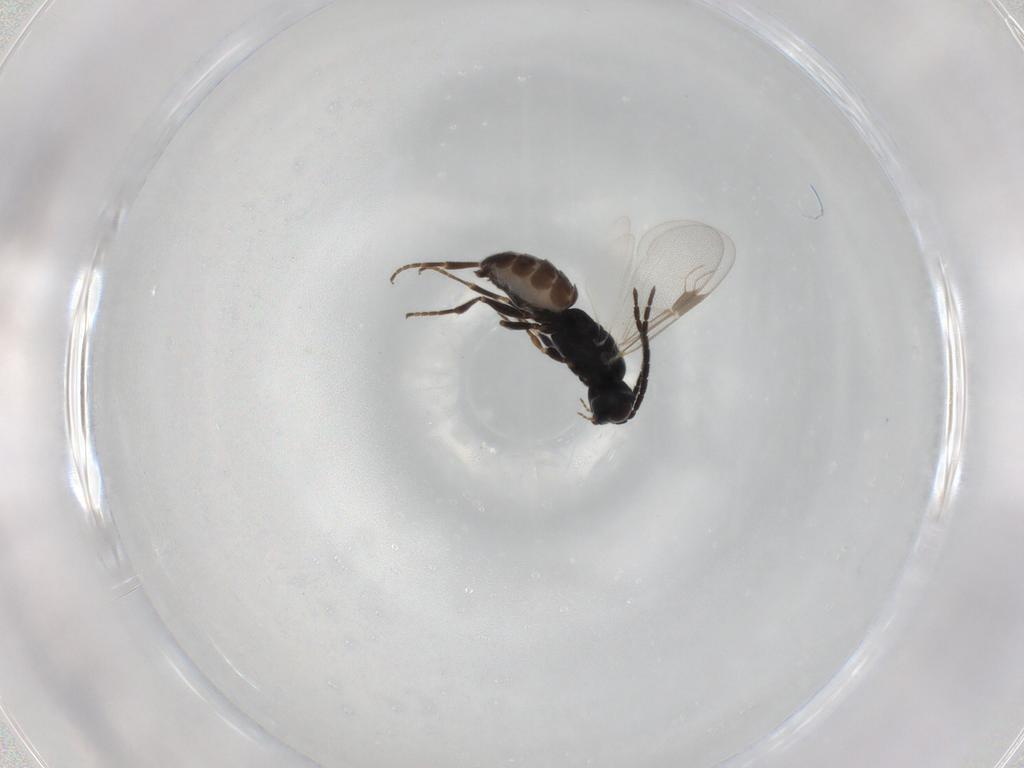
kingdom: Animalia
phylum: Arthropoda
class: Insecta
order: Hymenoptera
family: Dryinidae
